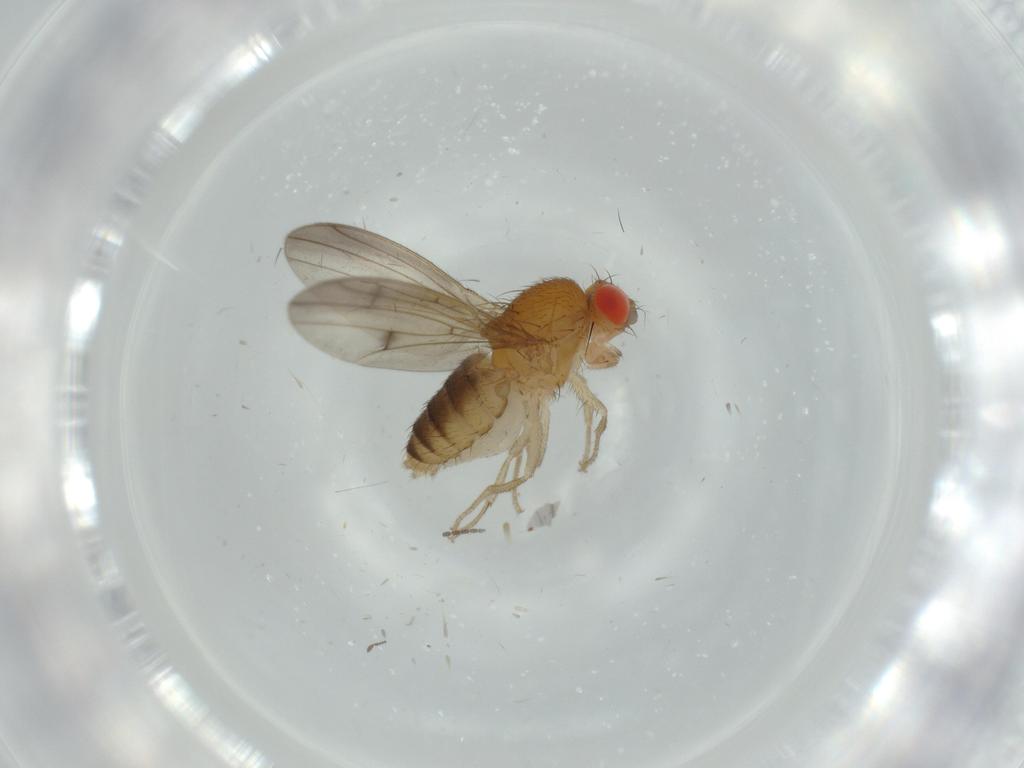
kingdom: Animalia
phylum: Arthropoda
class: Insecta
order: Diptera
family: Drosophilidae
